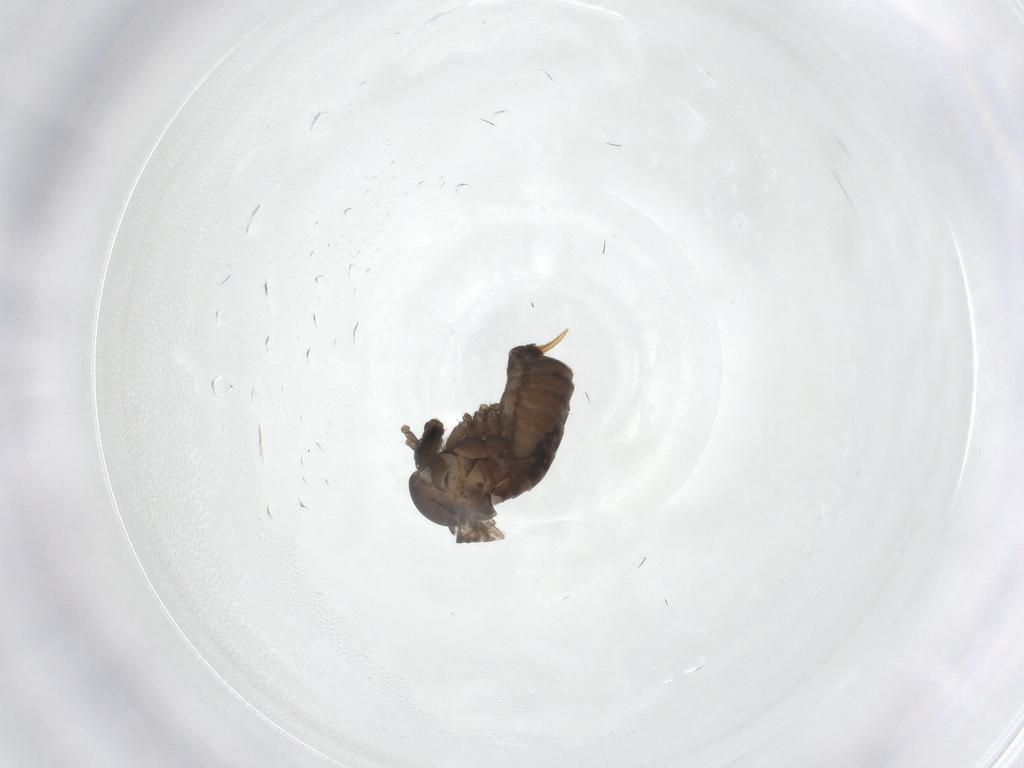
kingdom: Animalia
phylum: Arthropoda
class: Insecta
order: Diptera
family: Psychodidae
